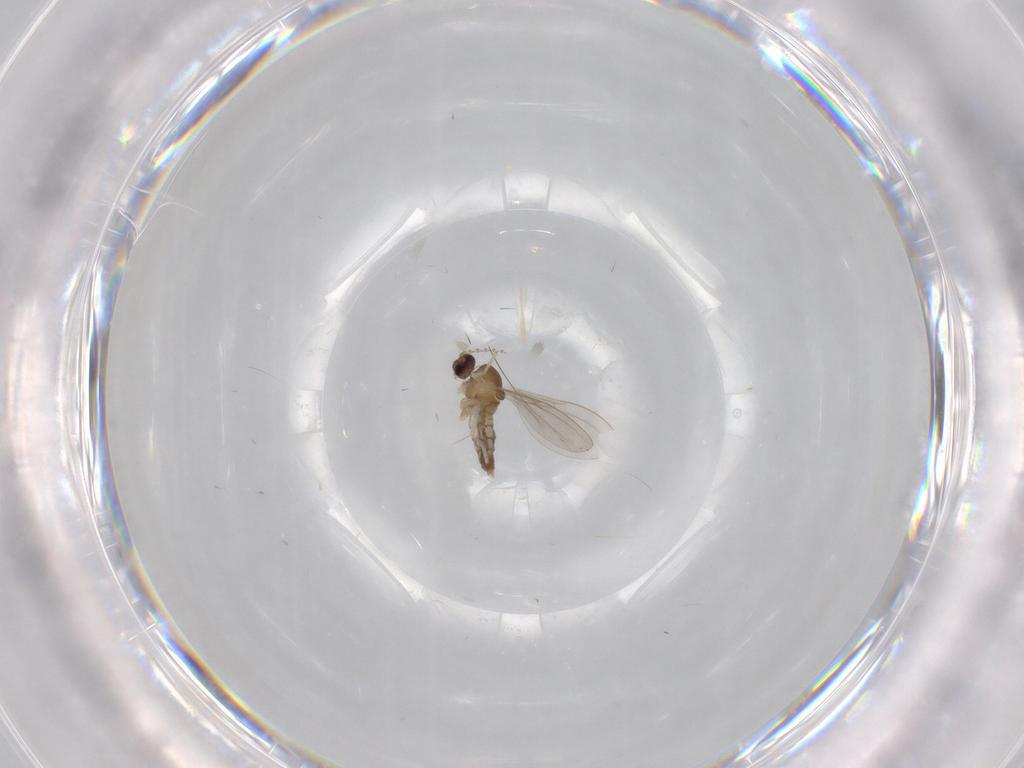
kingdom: Animalia
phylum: Arthropoda
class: Insecta
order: Diptera
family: Cecidomyiidae
